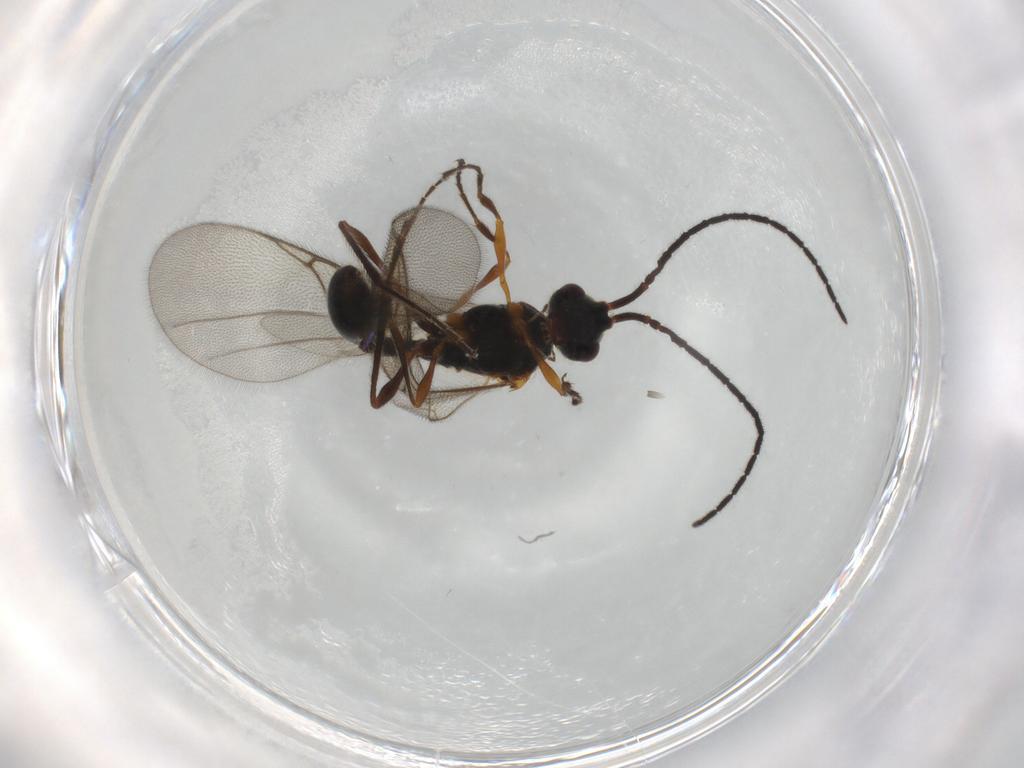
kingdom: Animalia
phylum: Arthropoda
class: Insecta
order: Hymenoptera
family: Diapriidae
